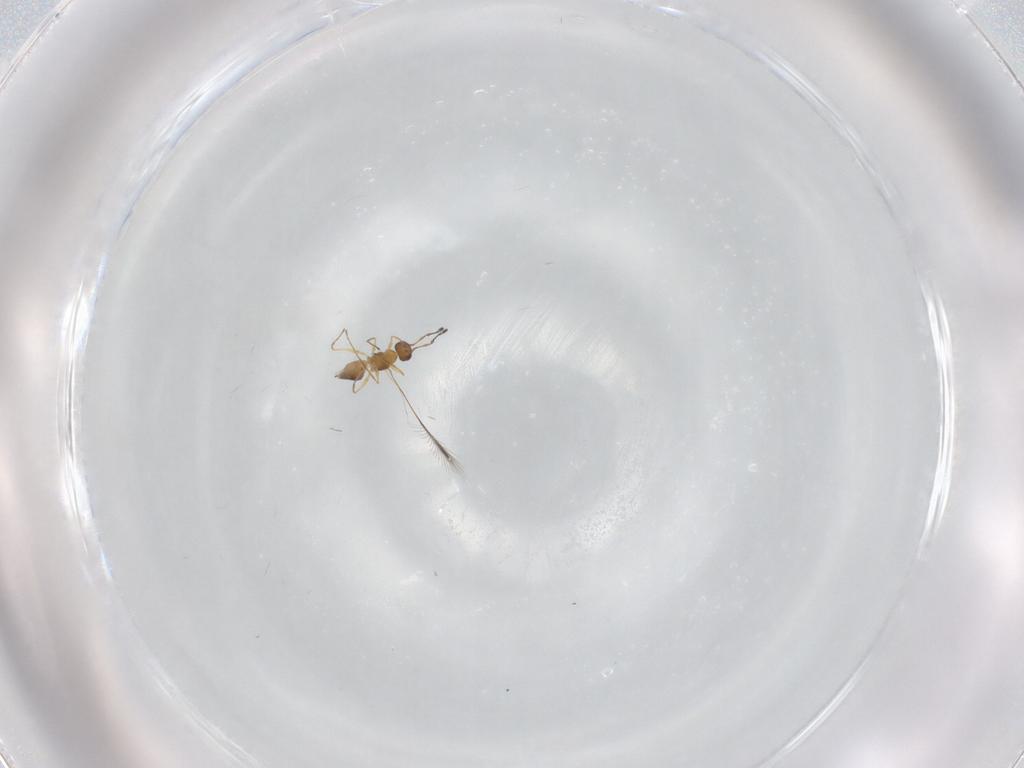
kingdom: Animalia
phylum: Arthropoda
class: Insecta
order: Hymenoptera
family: Mymaridae
